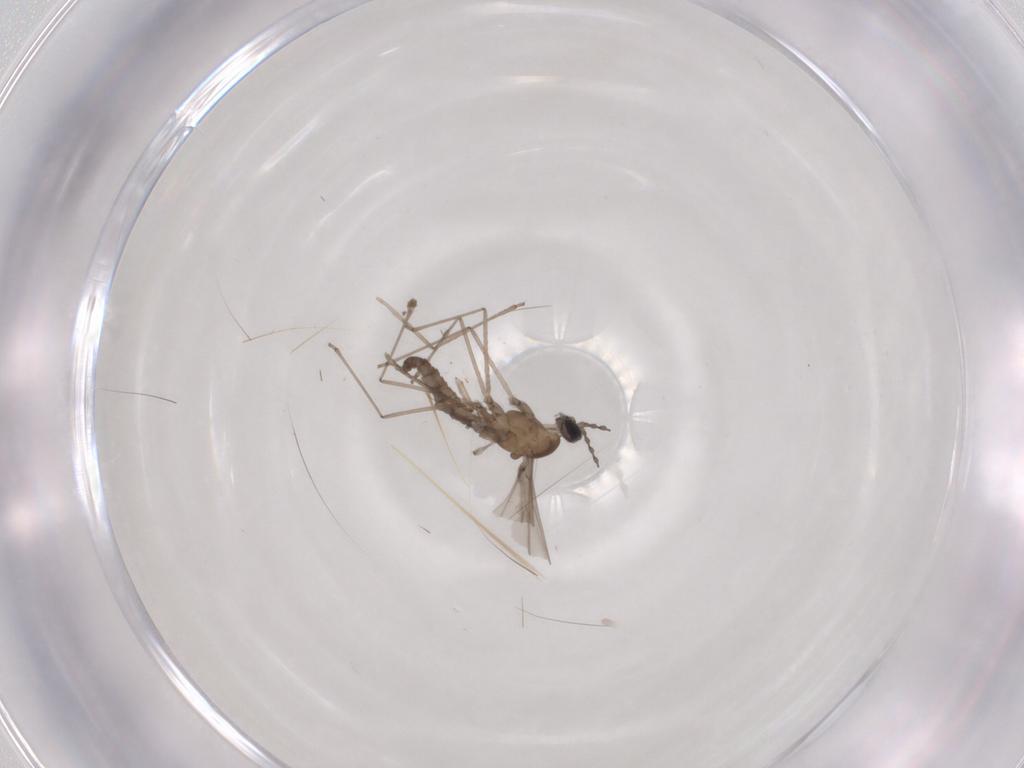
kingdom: Animalia
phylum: Arthropoda
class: Insecta
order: Diptera
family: Cecidomyiidae
